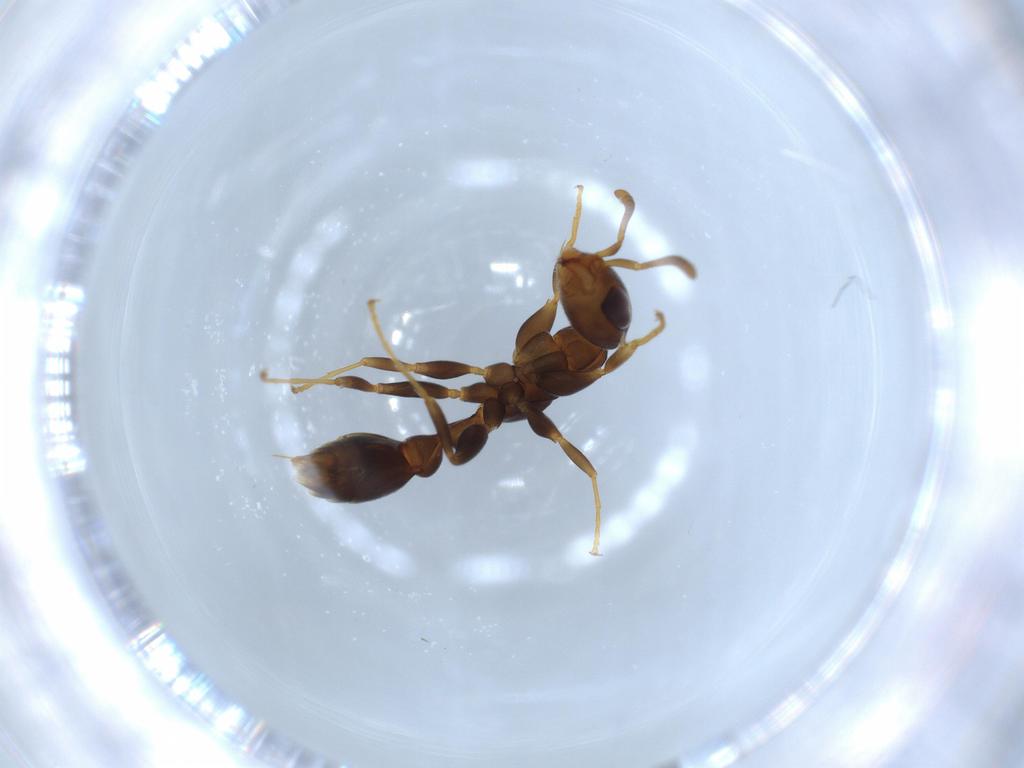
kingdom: Animalia
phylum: Arthropoda
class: Insecta
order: Hymenoptera
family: Formicidae
